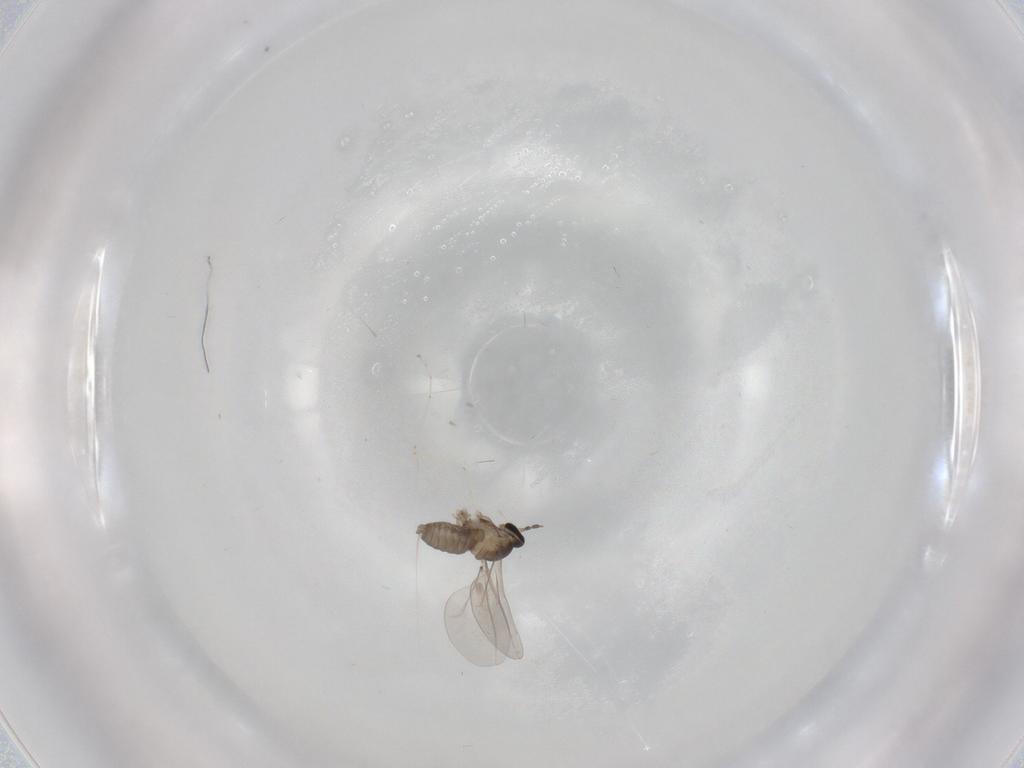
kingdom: Animalia
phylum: Arthropoda
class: Insecta
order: Diptera
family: Cecidomyiidae
